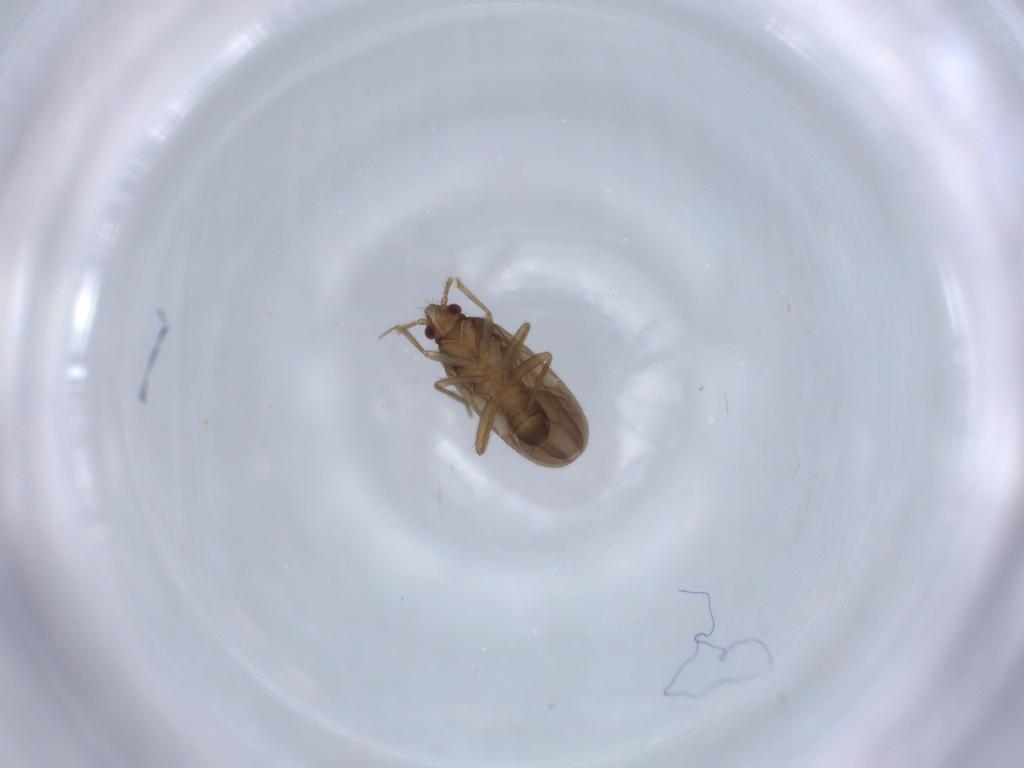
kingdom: Animalia
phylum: Arthropoda
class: Insecta
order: Hemiptera
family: Ceratocombidae
